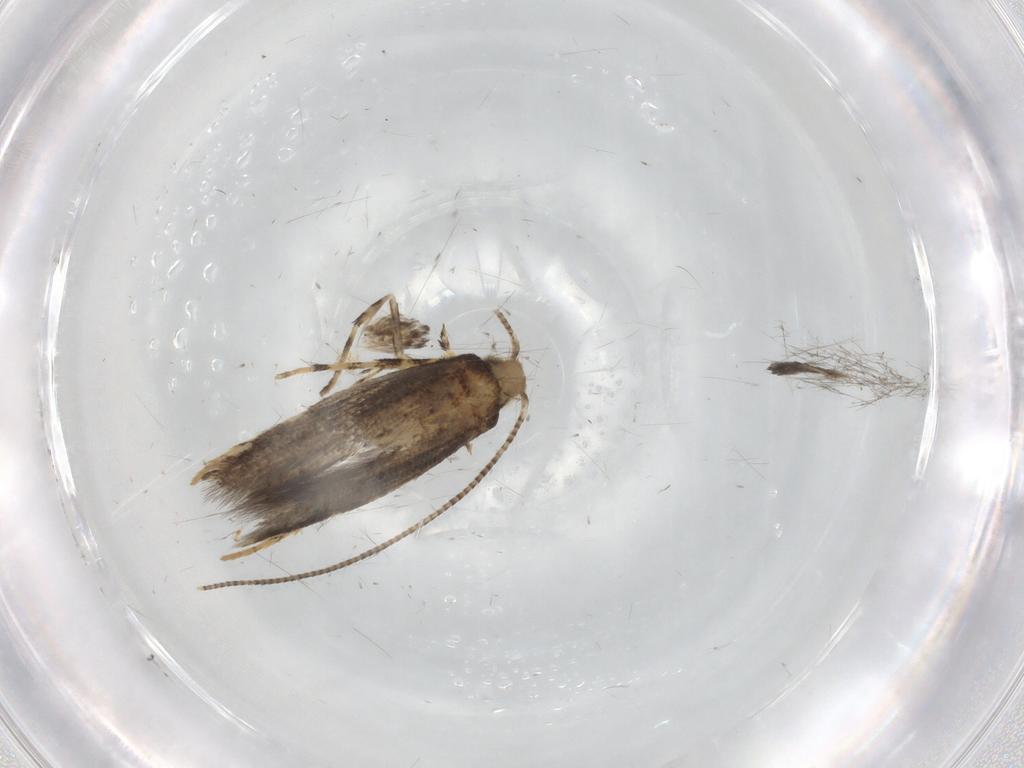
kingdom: Animalia
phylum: Arthropoda
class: Insecta
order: Lepidoptera
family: Gracillariidae
